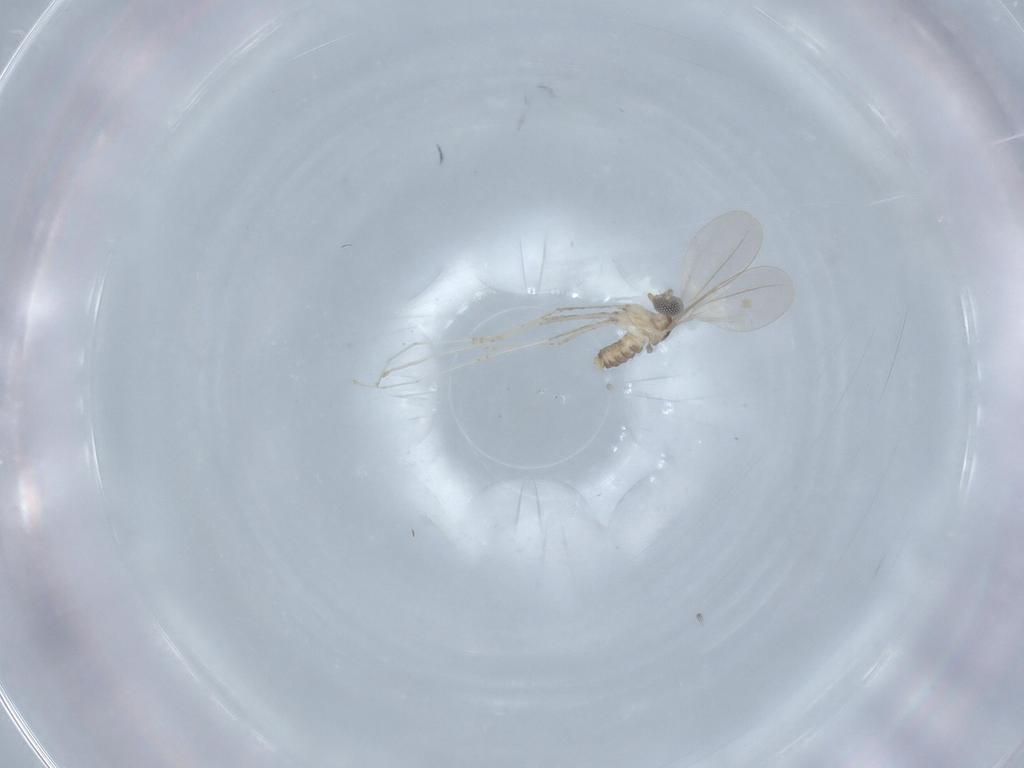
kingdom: Animalia
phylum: Arthropoda
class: Insecta
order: Diptera
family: Cecidomyiidae
